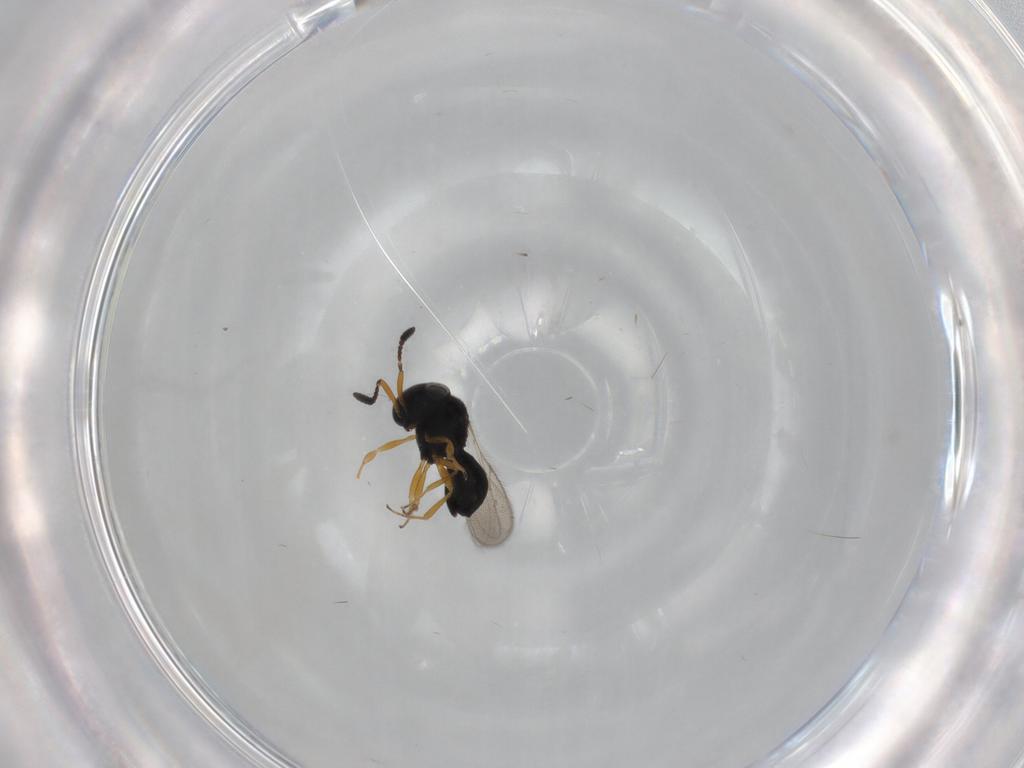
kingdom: Animalia
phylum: Arthropoda
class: Insecta
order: Hymenoptera
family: Scelionidae
